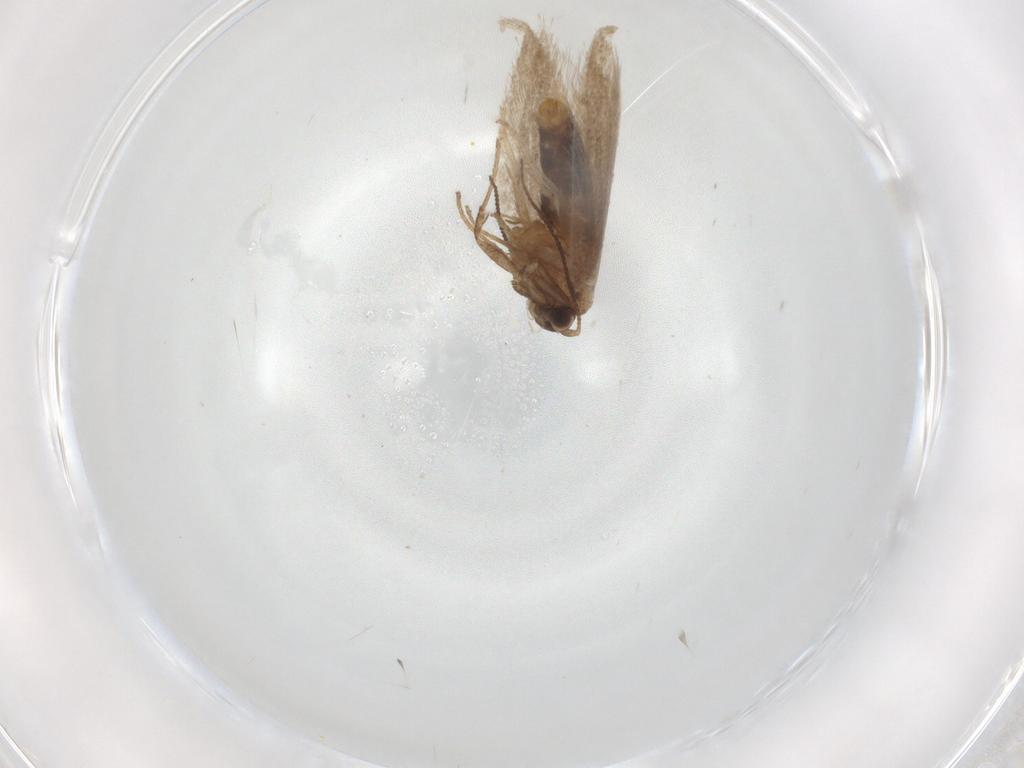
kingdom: Animalia
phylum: Arthropoda
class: Insecta
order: Lepidoptera
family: Nepticulidae
